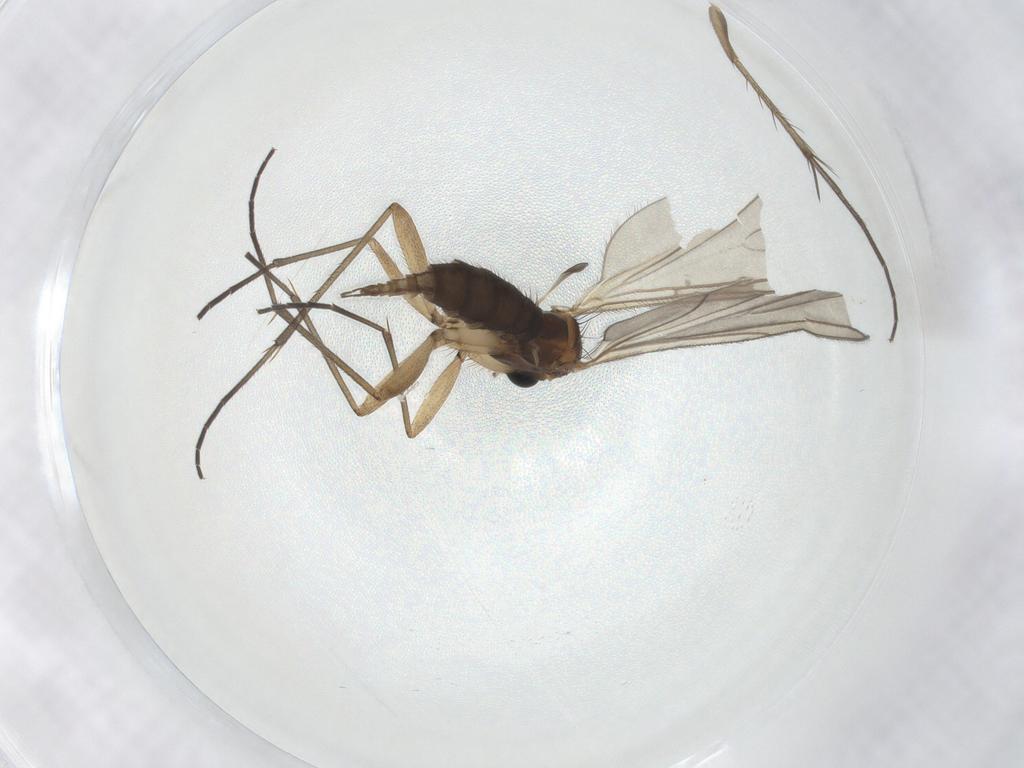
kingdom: Animalia
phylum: Arthropoda
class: Insecta
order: Diptera
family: Sciaridae
